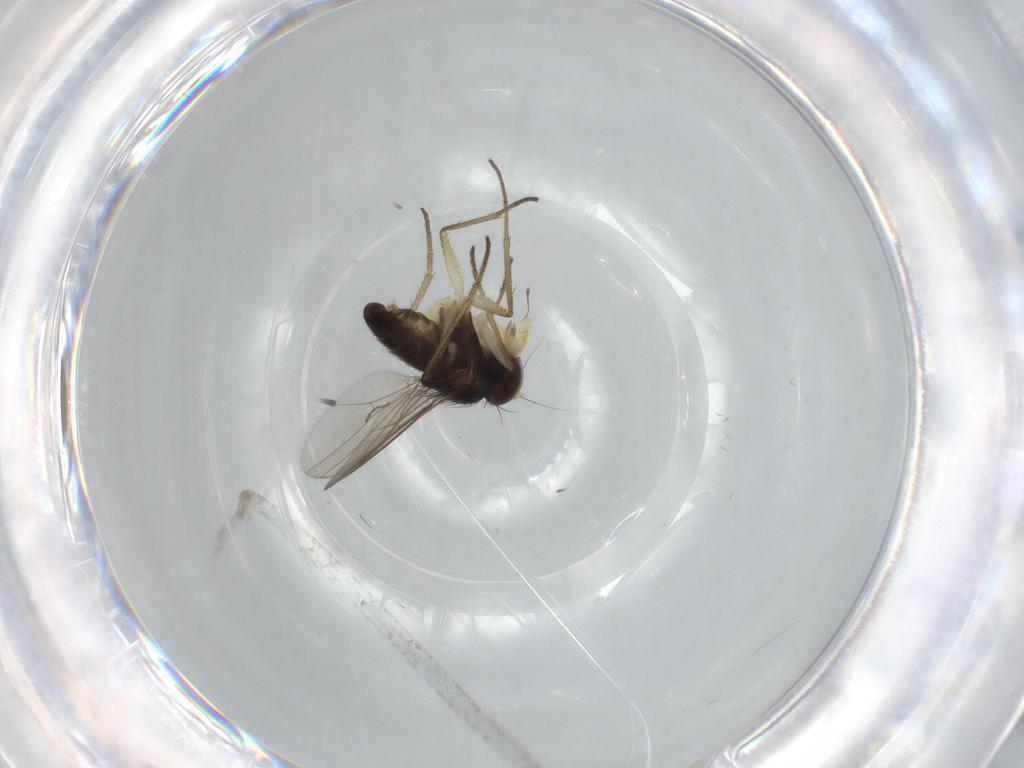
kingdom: Animalia
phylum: Arthropoda
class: Insecta
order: Diptera
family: Dolichopodidae
